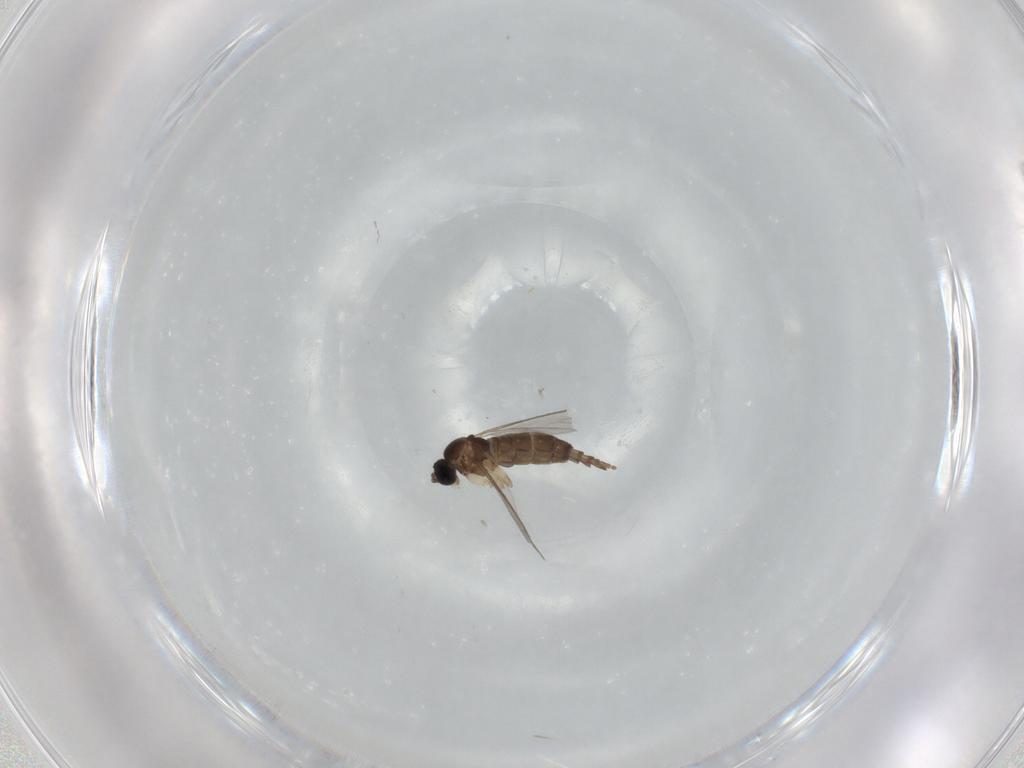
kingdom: Animalia
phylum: Arthropoda
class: Insecta
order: Diptera
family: Sciaridae
